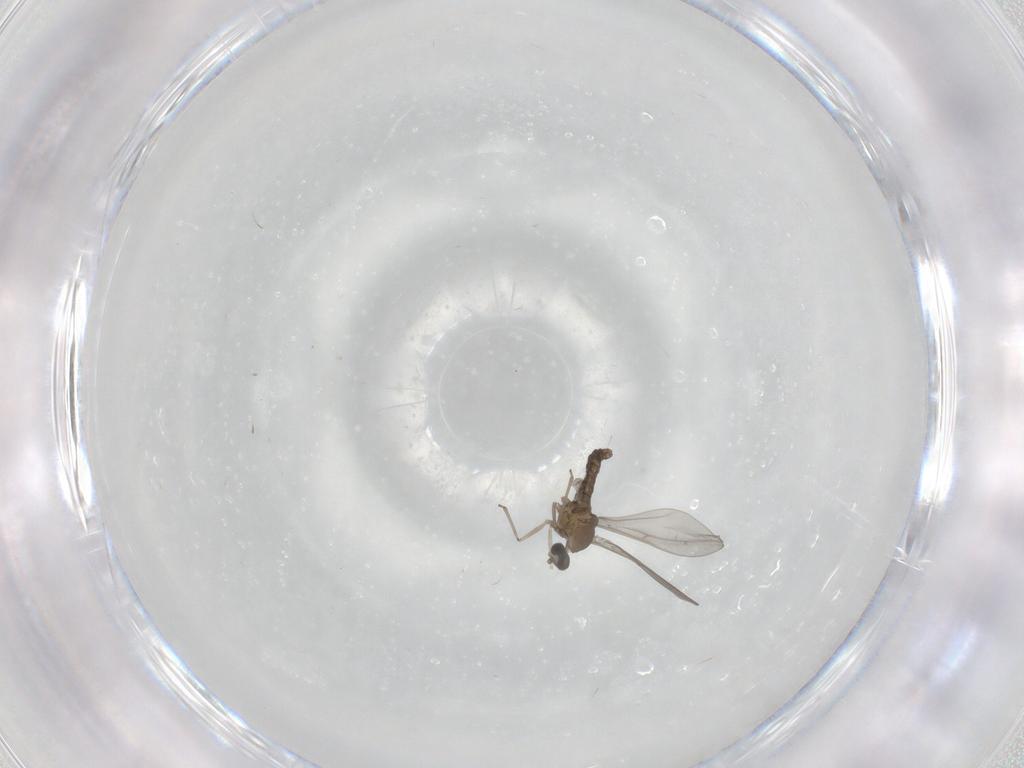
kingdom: Animalia
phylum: Arthropoda
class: Insecta
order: Diptera
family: Cecidomyiidae
